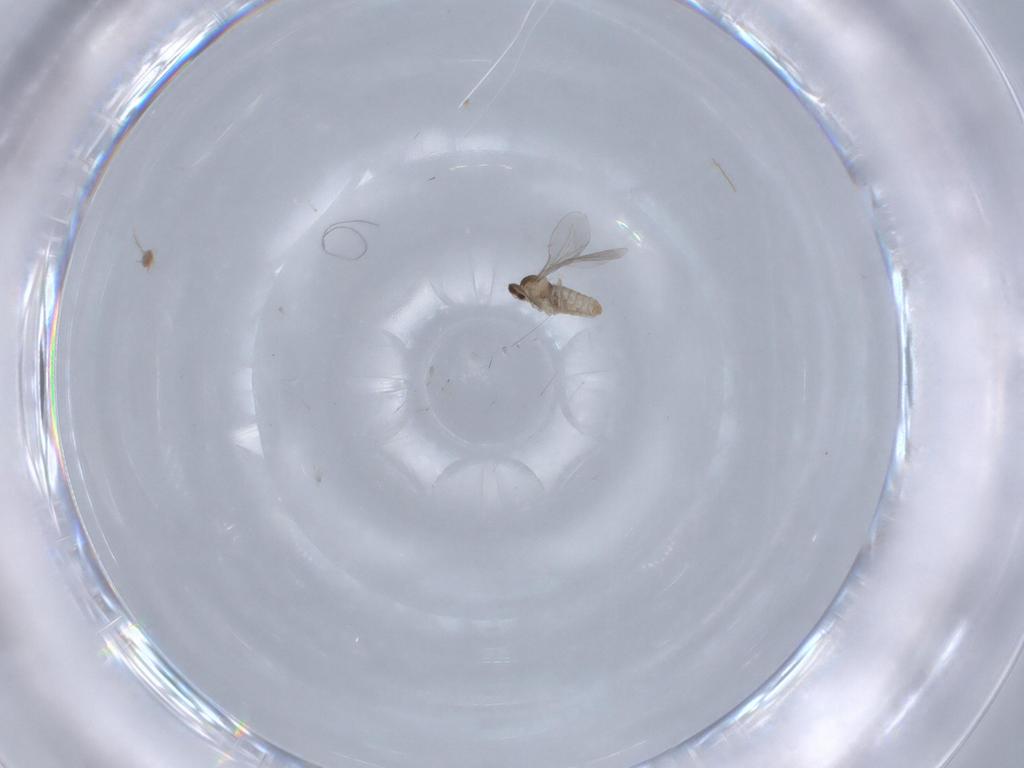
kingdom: Animalia
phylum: Arthropoda
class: Insecta
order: Diptera
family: Cecidomyiidae
